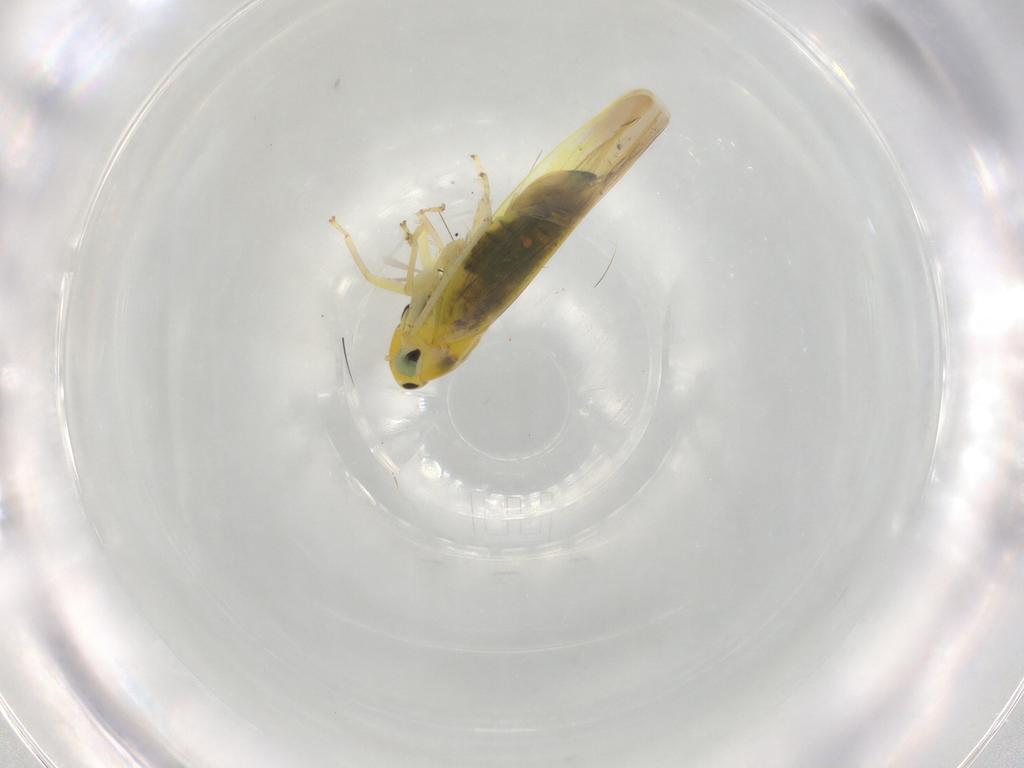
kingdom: Animalia
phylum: Arthropoda
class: Insecta
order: Hemiptera
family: Cicadellidae
